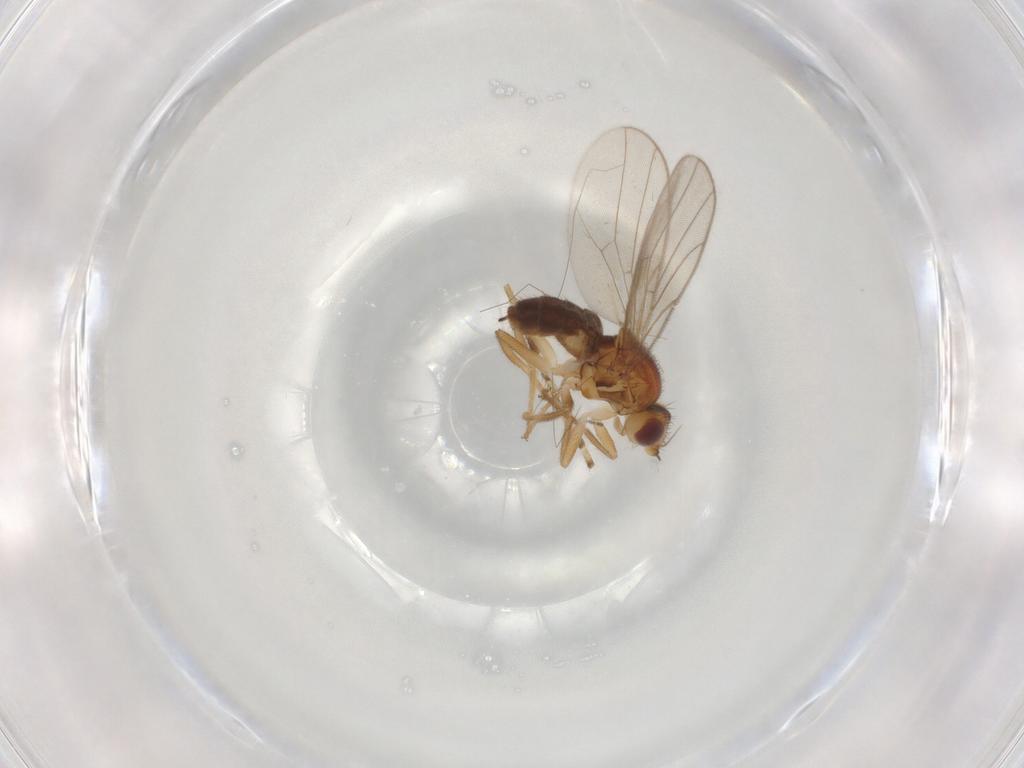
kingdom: Animalia
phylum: Arthropoda
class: Insecta
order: Diptera
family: Chloropidae
